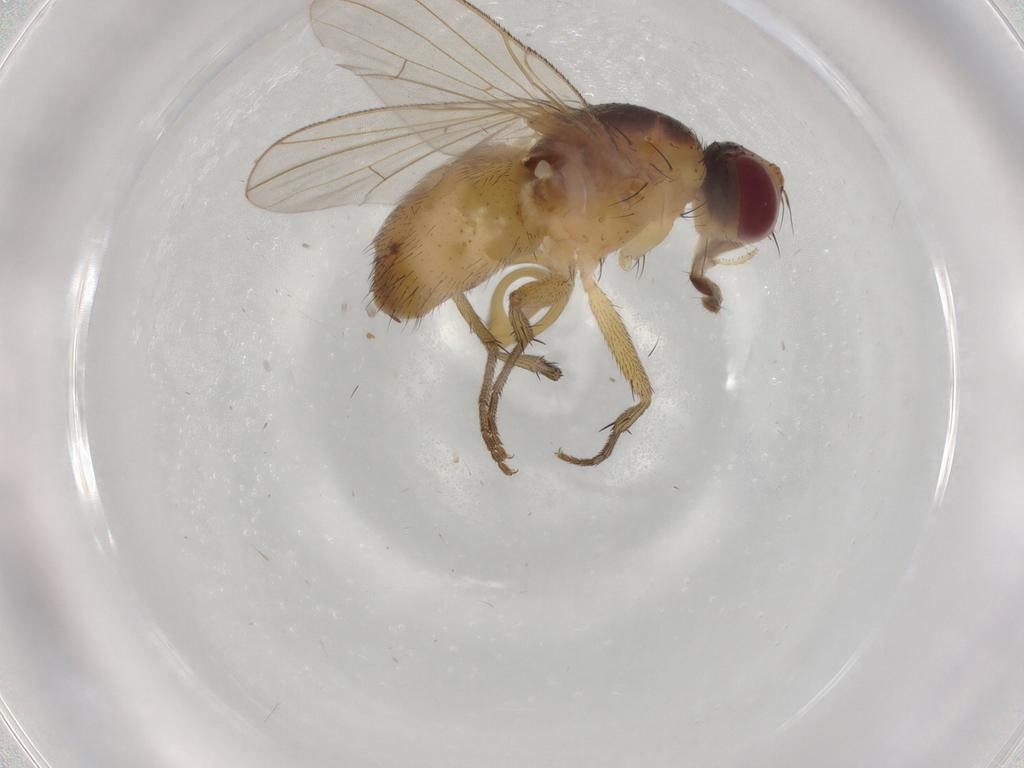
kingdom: Animalia
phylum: Arthropoda
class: Insecta
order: Diptera
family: Muscidae
